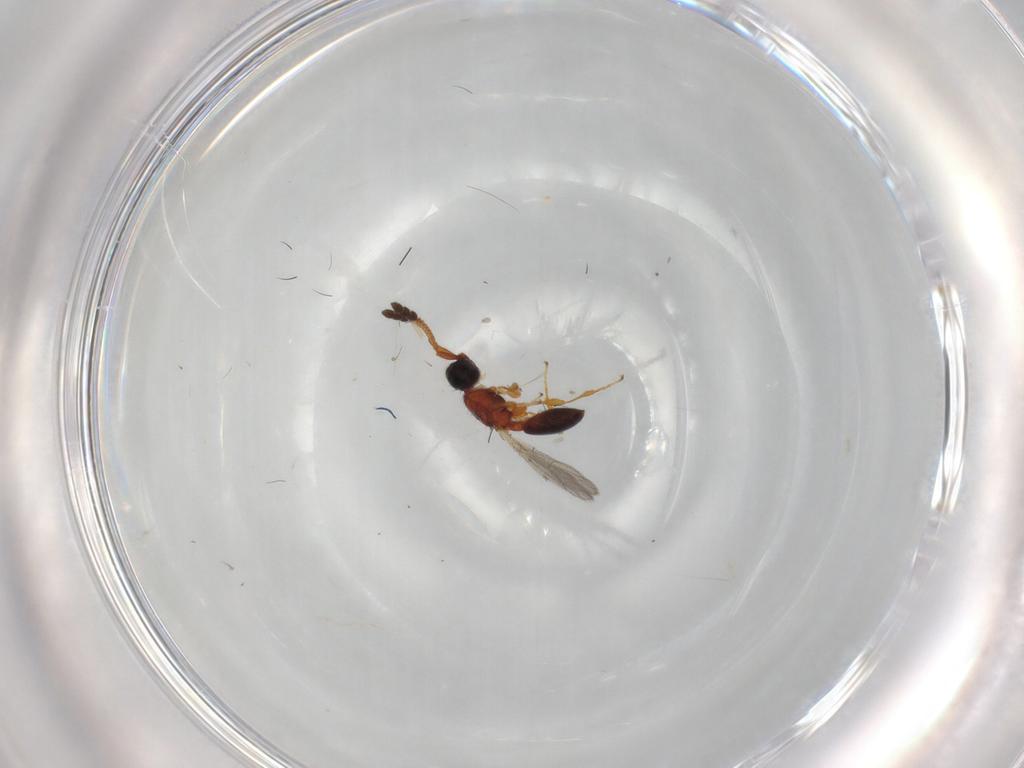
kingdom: Animalia
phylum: Arthropoda
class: Insecta
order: Hymenoptera
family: Diapriidae
